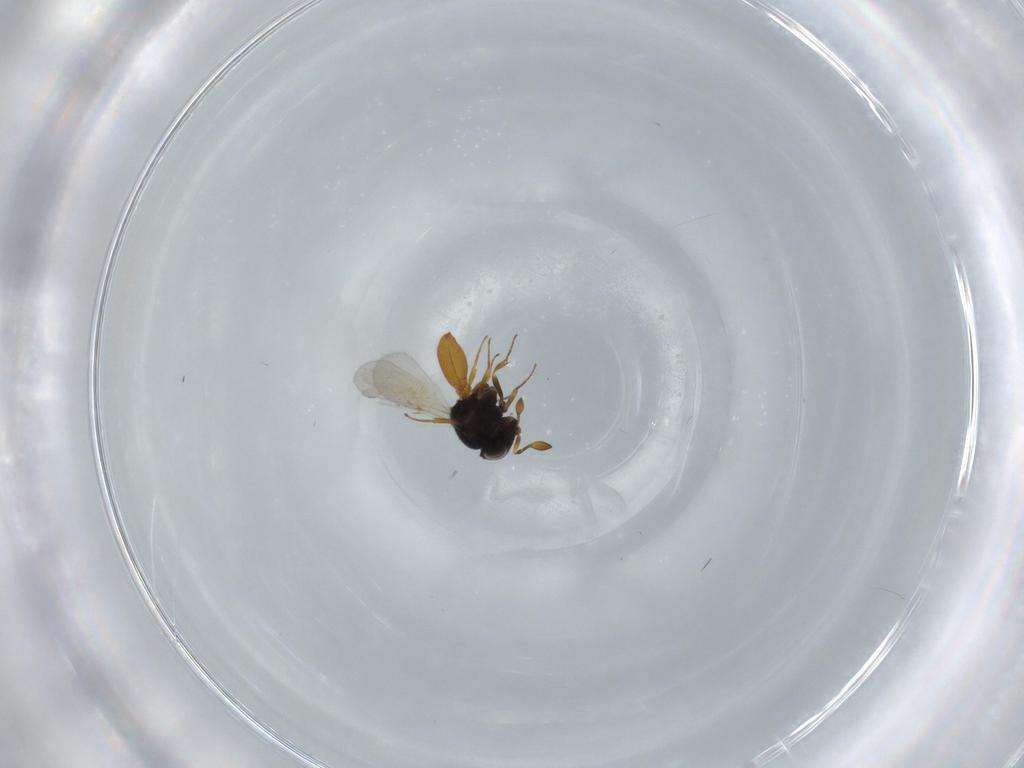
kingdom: Animalia
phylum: Arthropoda
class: Insecta
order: Hymenoptera
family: Scelionidae
